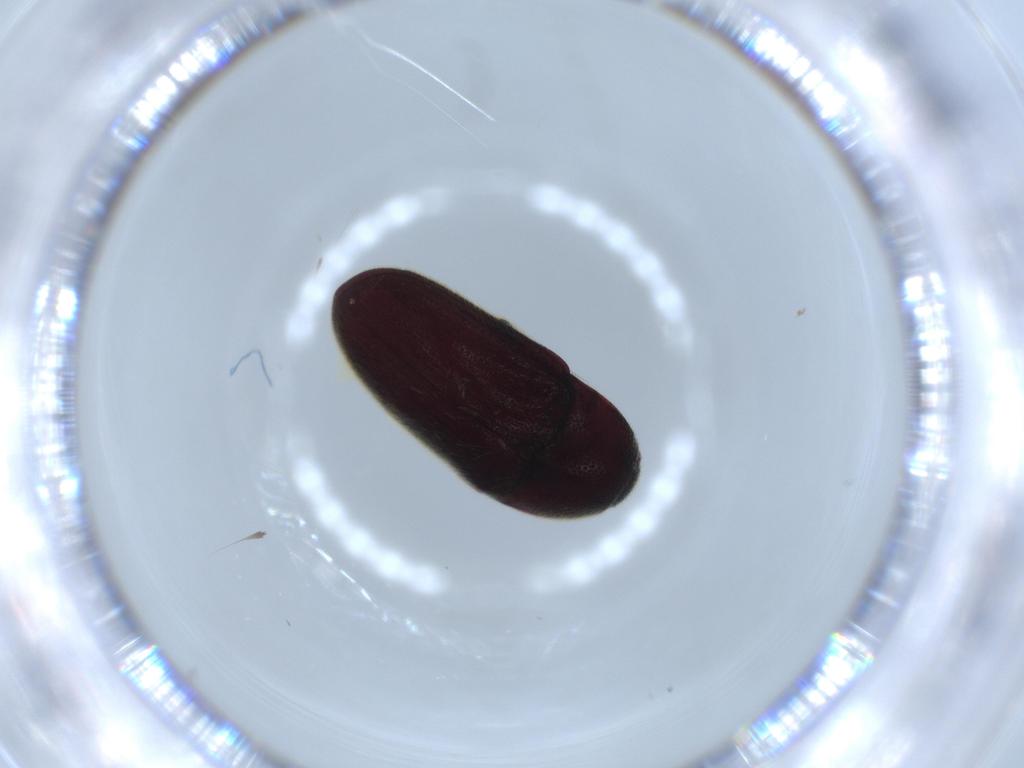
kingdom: Animalia
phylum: Arthropoda
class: Insecta
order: Coleoptera
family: Throscidae
